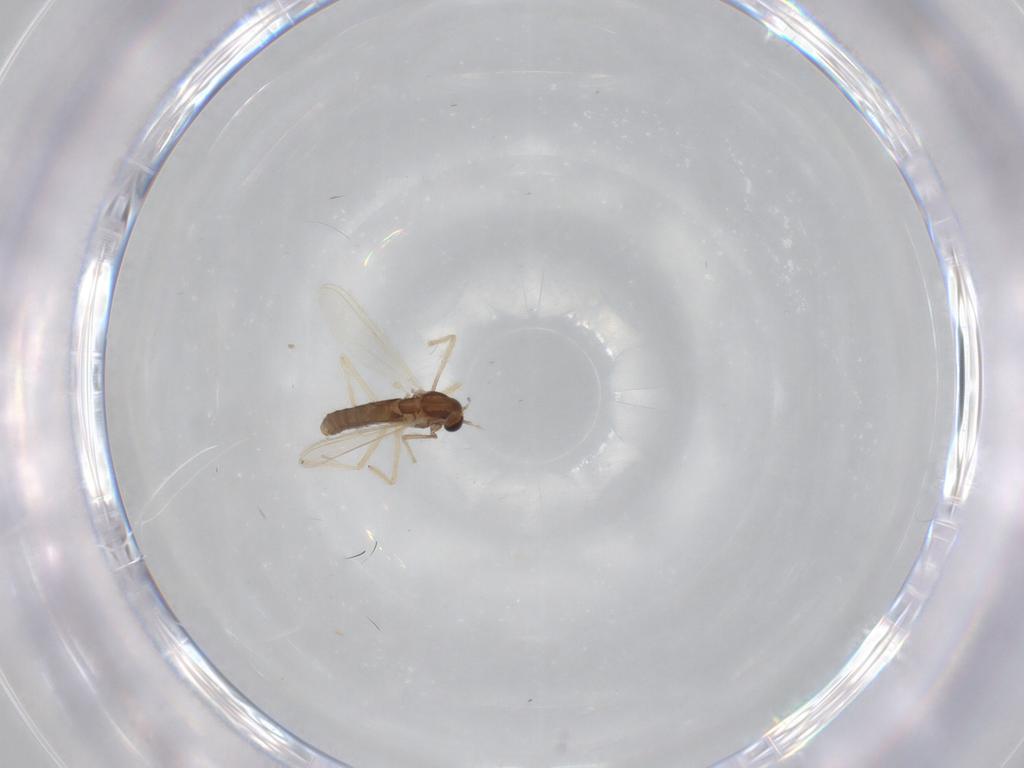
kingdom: Animalia
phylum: Arthropoda
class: Insecta
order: Diptera
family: Chironomidae
